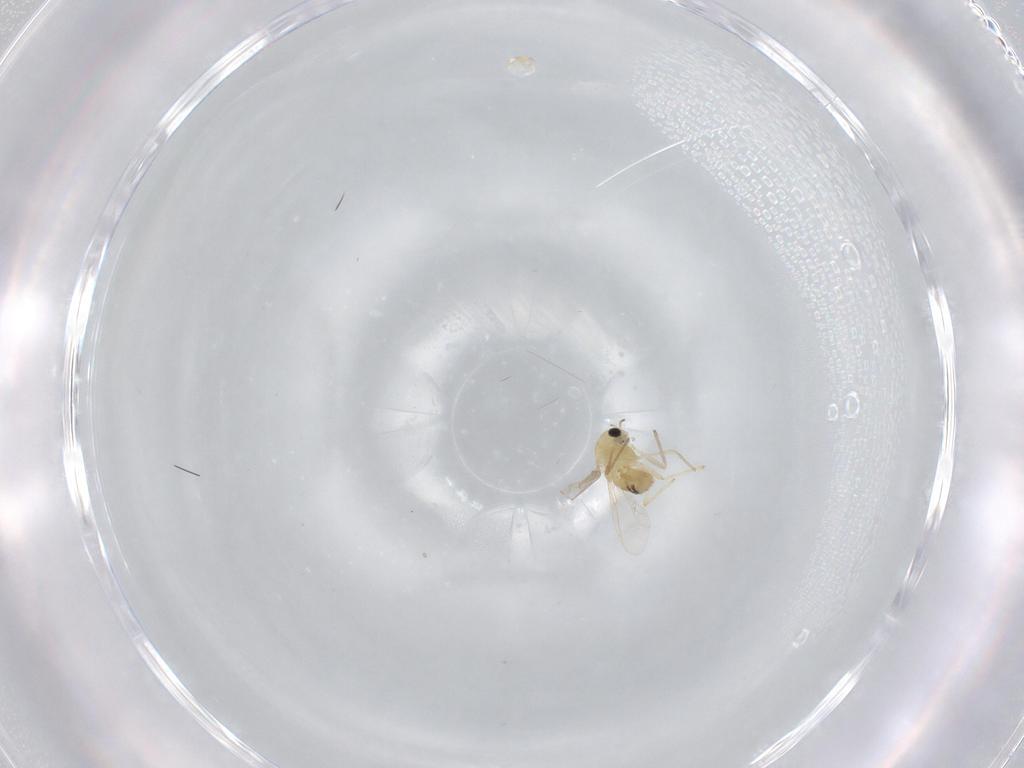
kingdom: Animalia
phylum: Arthropoda
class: Insecta
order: Diptera
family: Chironomidae
